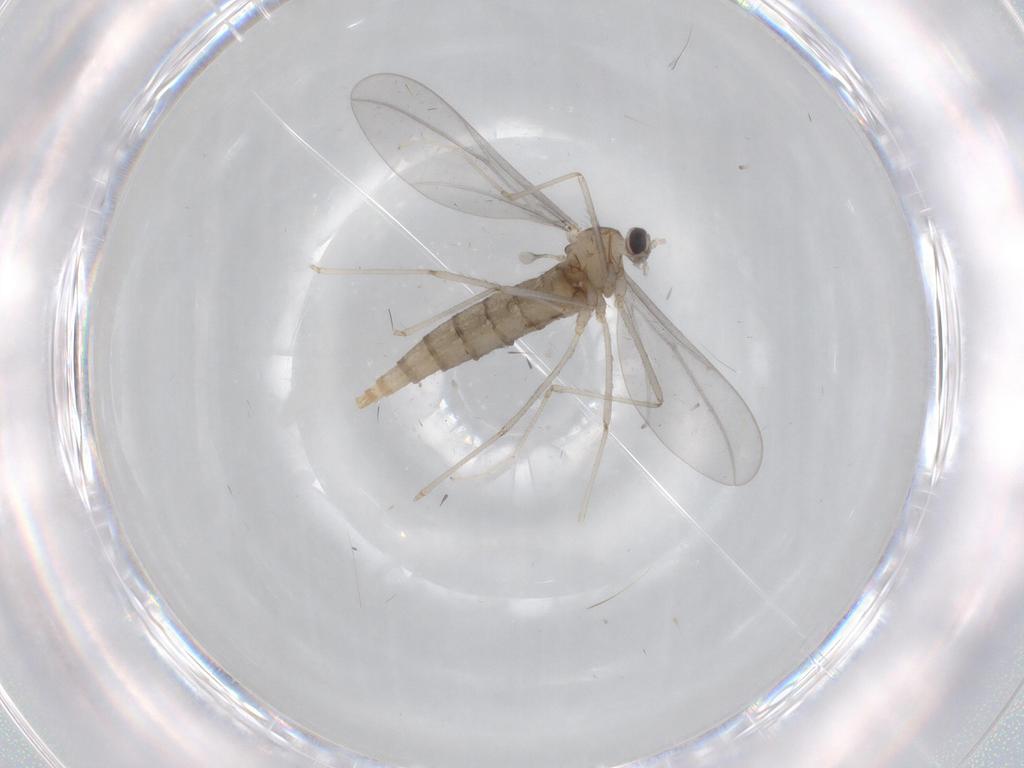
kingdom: Animalia
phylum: Arthropoda
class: Insecta
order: Diptera
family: Cecidomyiidae
